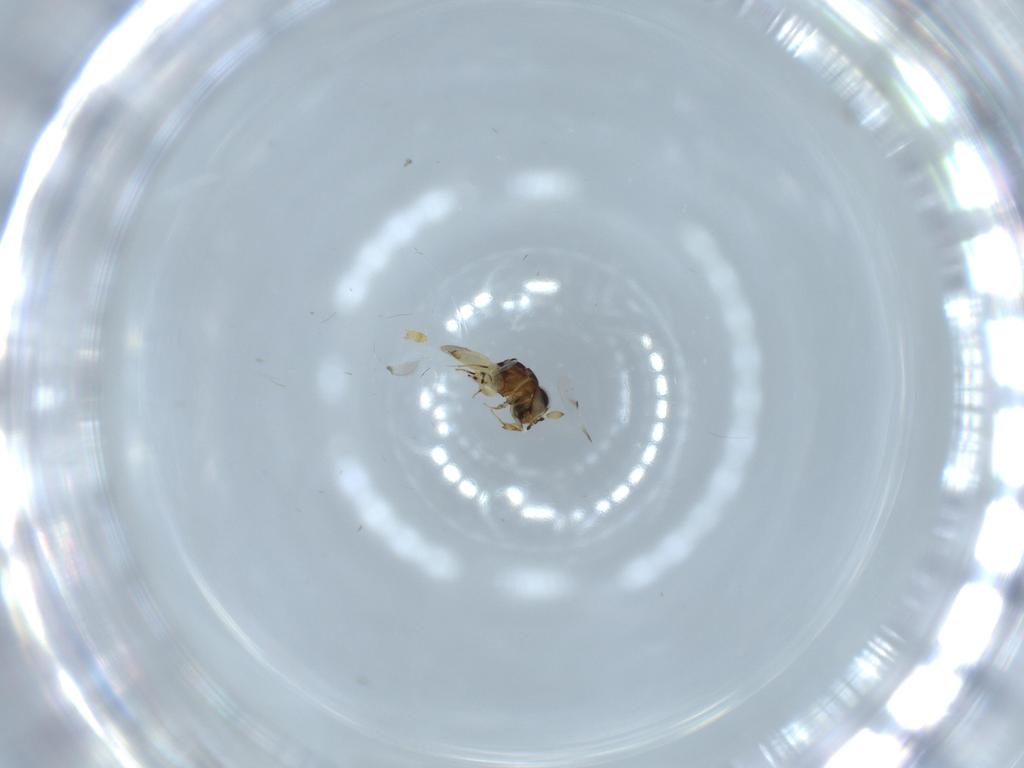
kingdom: Animalia
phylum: Arthropoda
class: Insecta
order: Hymenoptera
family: Scelionidae
